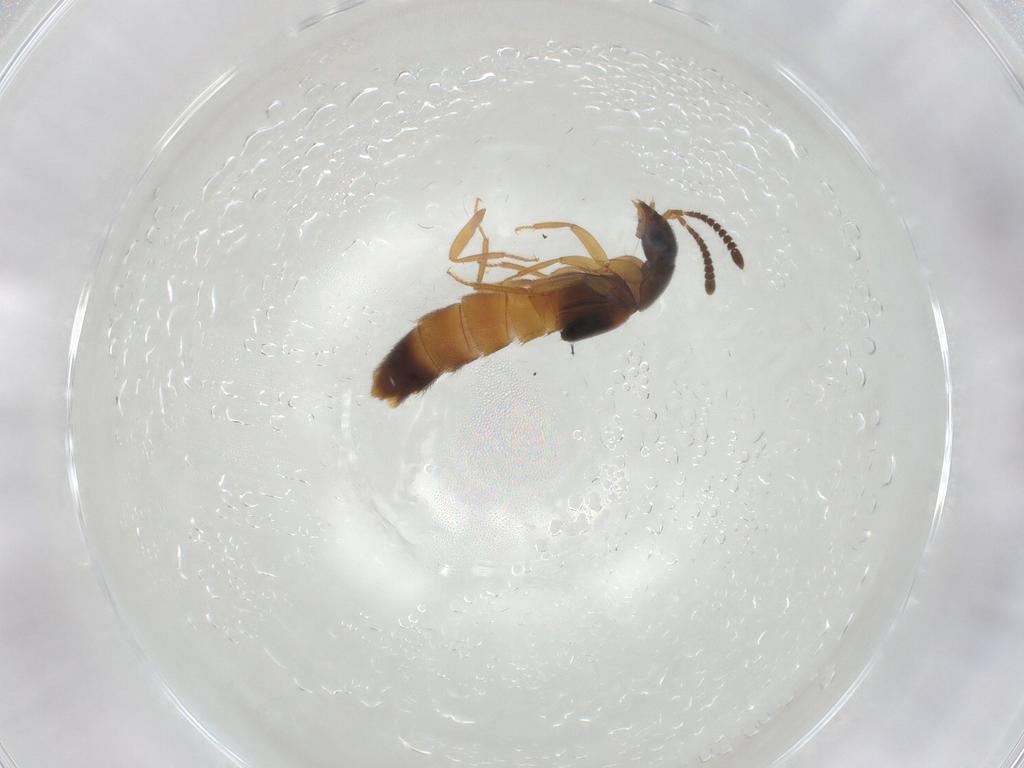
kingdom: Animalia
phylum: Arthropoda
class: Insecta
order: Coleoptera
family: Staphylinidae
